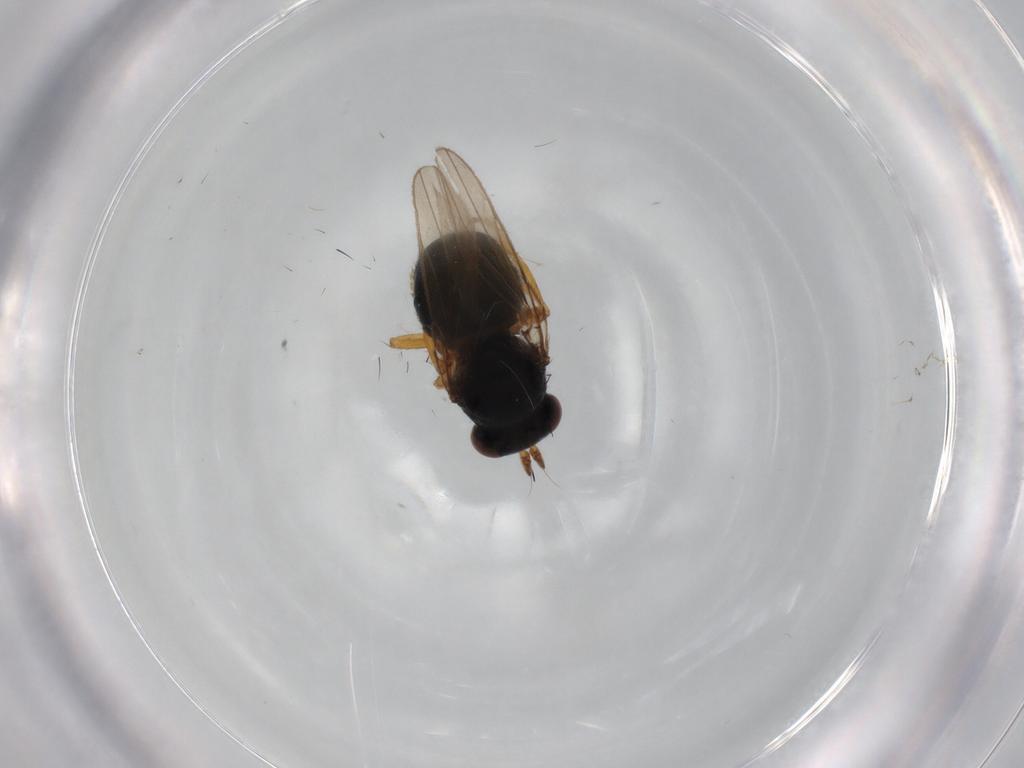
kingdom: Animalia
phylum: Arthropoda
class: Insecta
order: Diptera
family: Ephydridae
